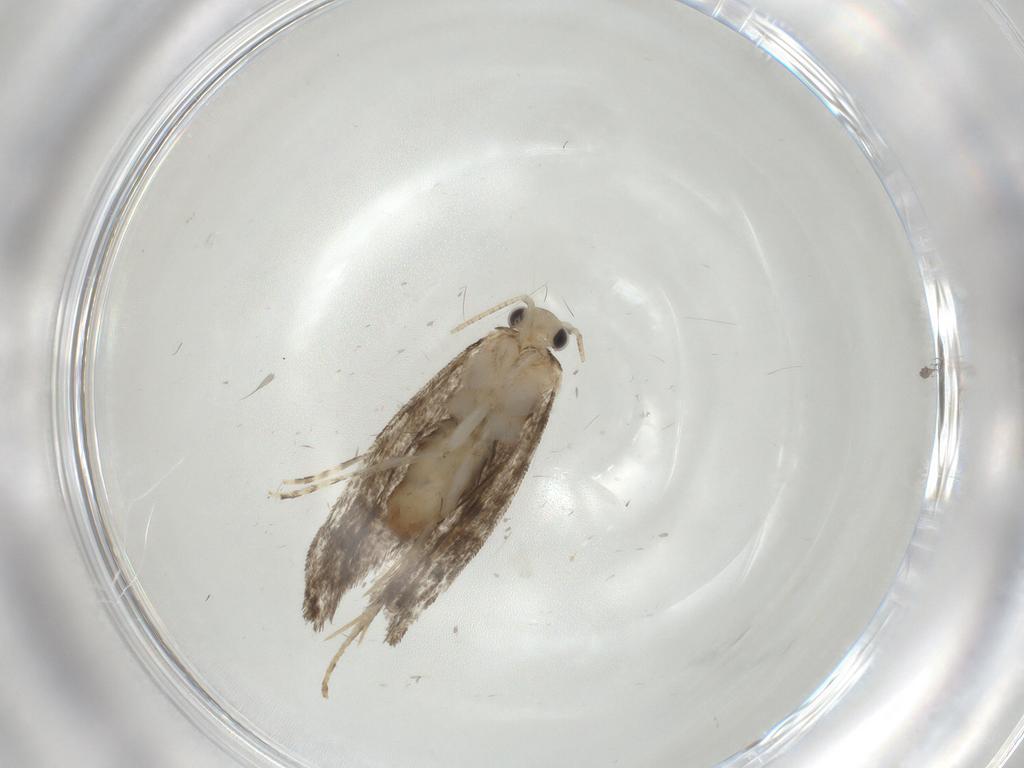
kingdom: Animalia
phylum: Arthropoda
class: Insecta
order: Lepidoptera
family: Tineidae
